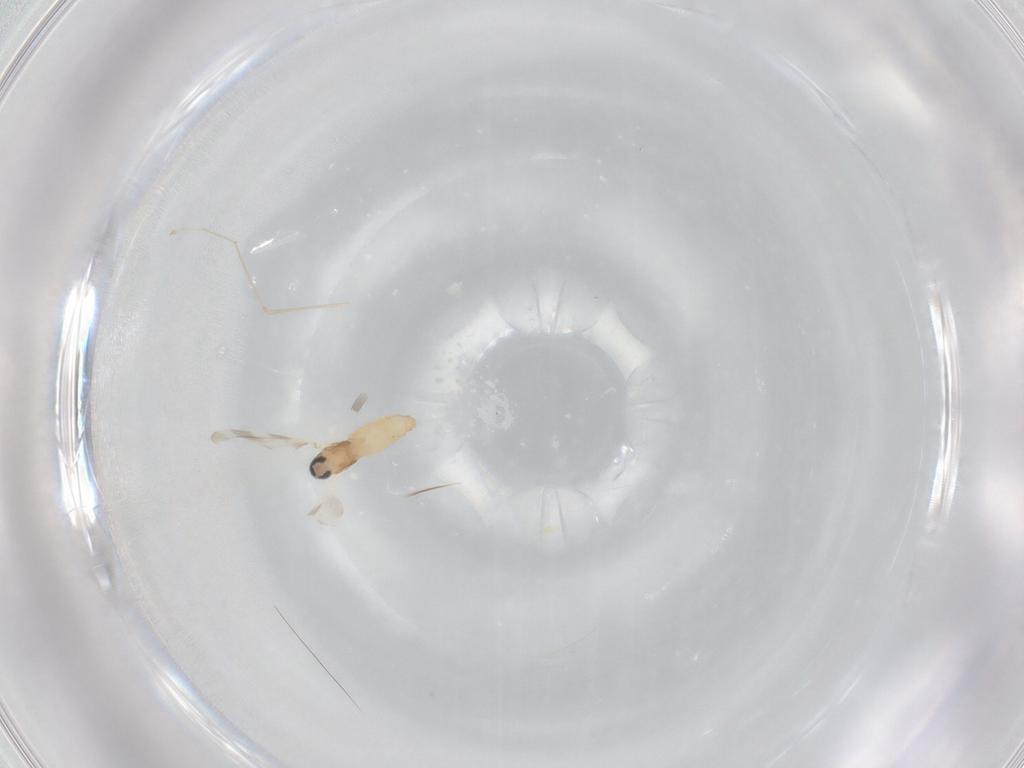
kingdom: Animalia
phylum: Arthropoda
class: Insecta
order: Diptera
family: Cecidomyiidae
